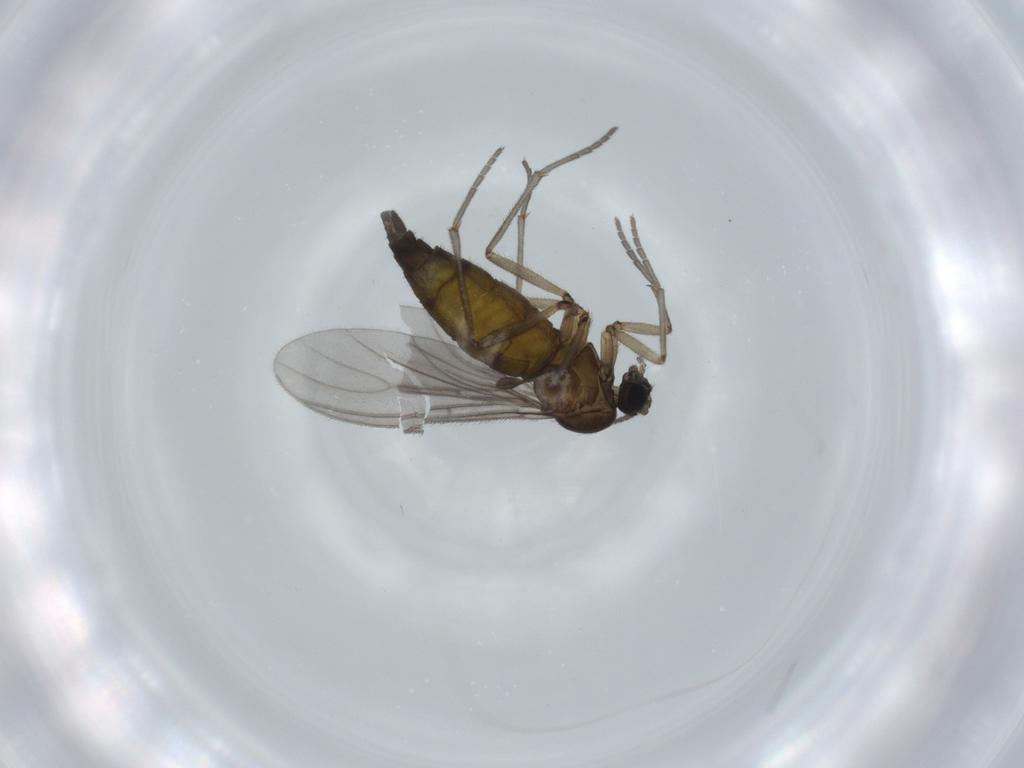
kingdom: Animalia
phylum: Arthropoda
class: Insecta
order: Diptera
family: Sciaridae
